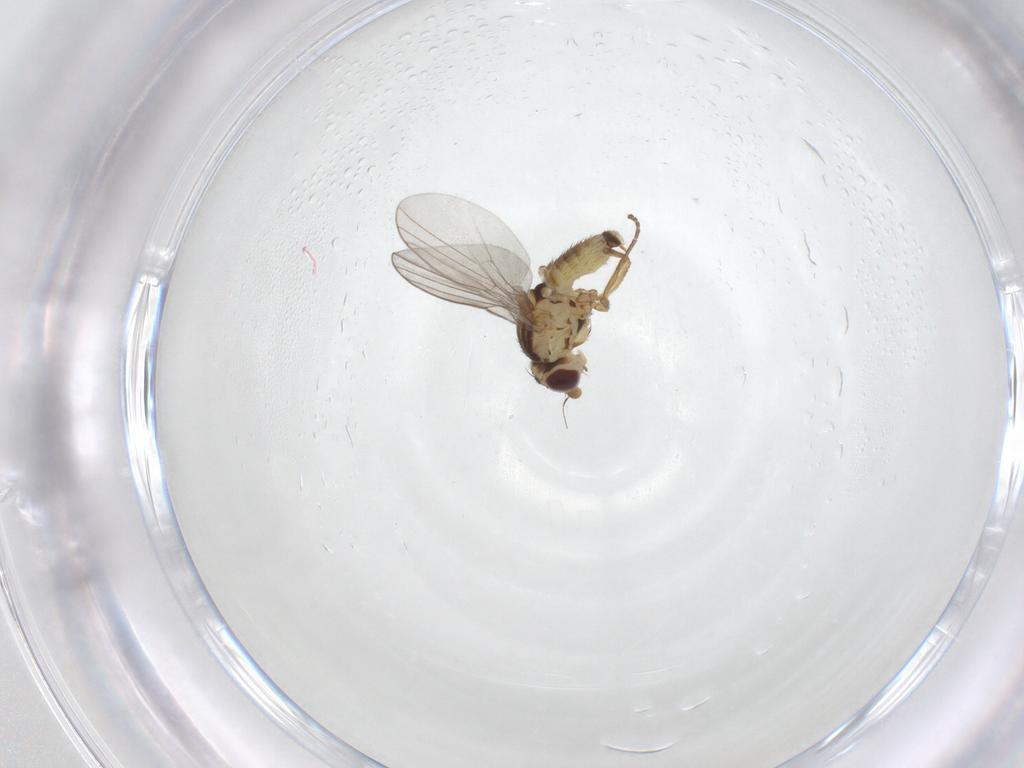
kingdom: Animalia
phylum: Arthropoda
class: Insecta
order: Diptera
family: Agromyzidae
